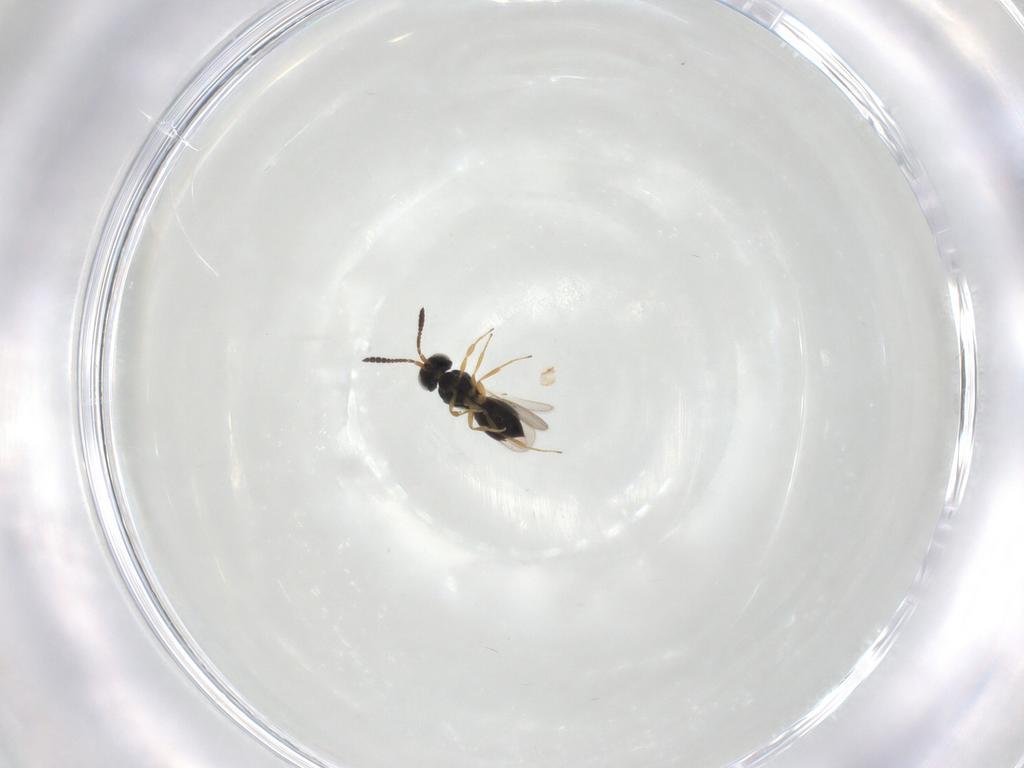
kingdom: Animalia
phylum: Arthropoda
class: Insecta
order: Hymenoptera
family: Scelionidae
